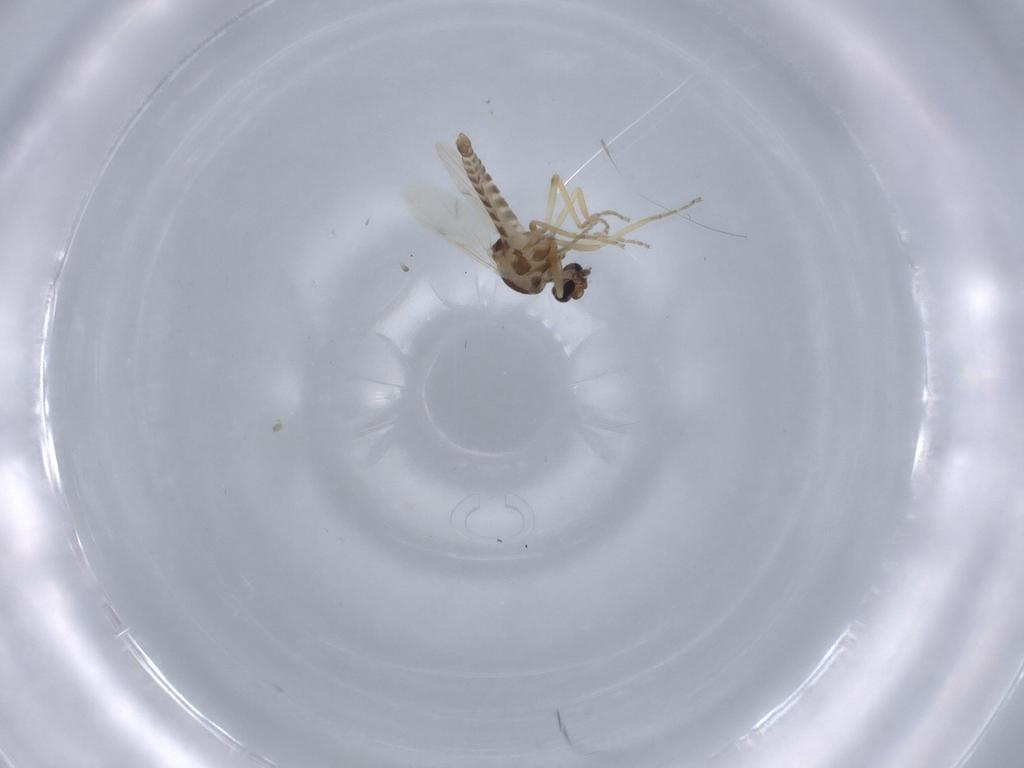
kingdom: Animalia
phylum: Arthropoda
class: Insecta
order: Diptera
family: Ceratopogonidae
